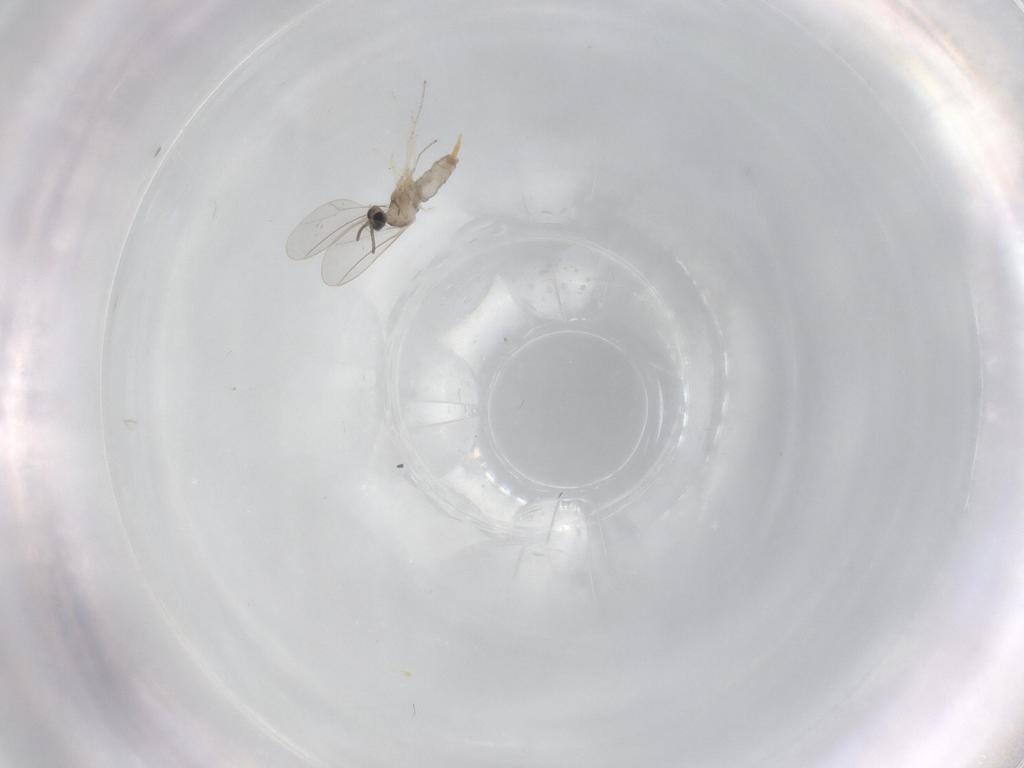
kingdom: Animalia
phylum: Arthropoda
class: Insecta
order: Diptera
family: Cecidomyiidae
